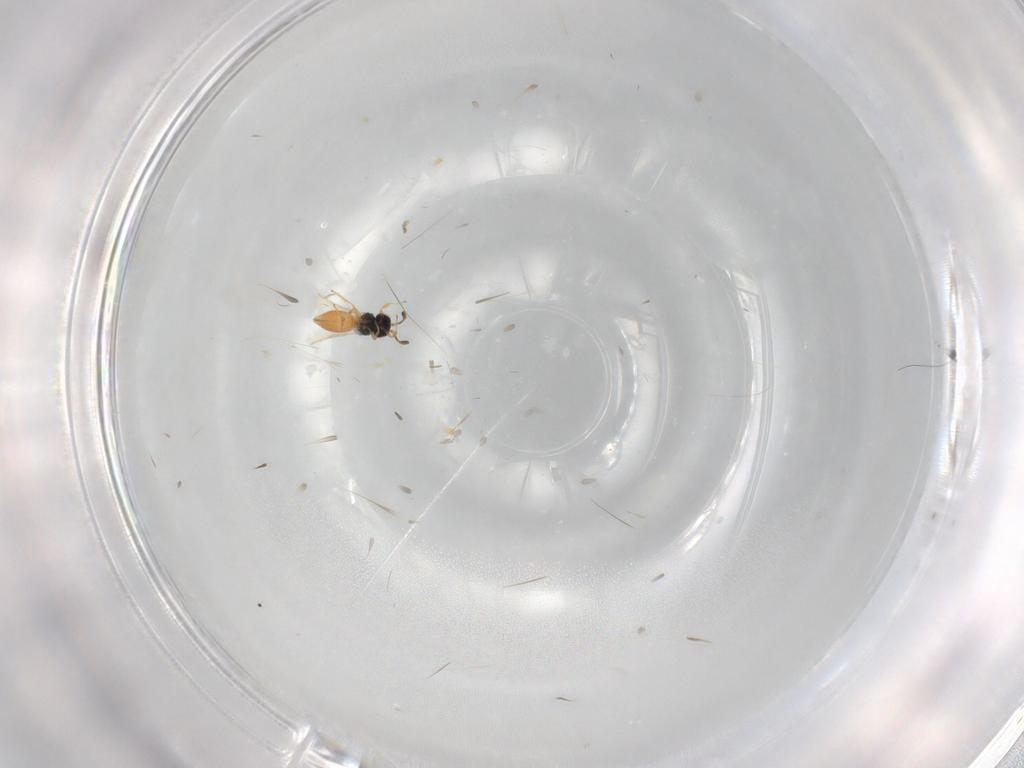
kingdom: Animalia
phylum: Arthropoda
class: Insecta
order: Hymenoptera
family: Scelionidae
